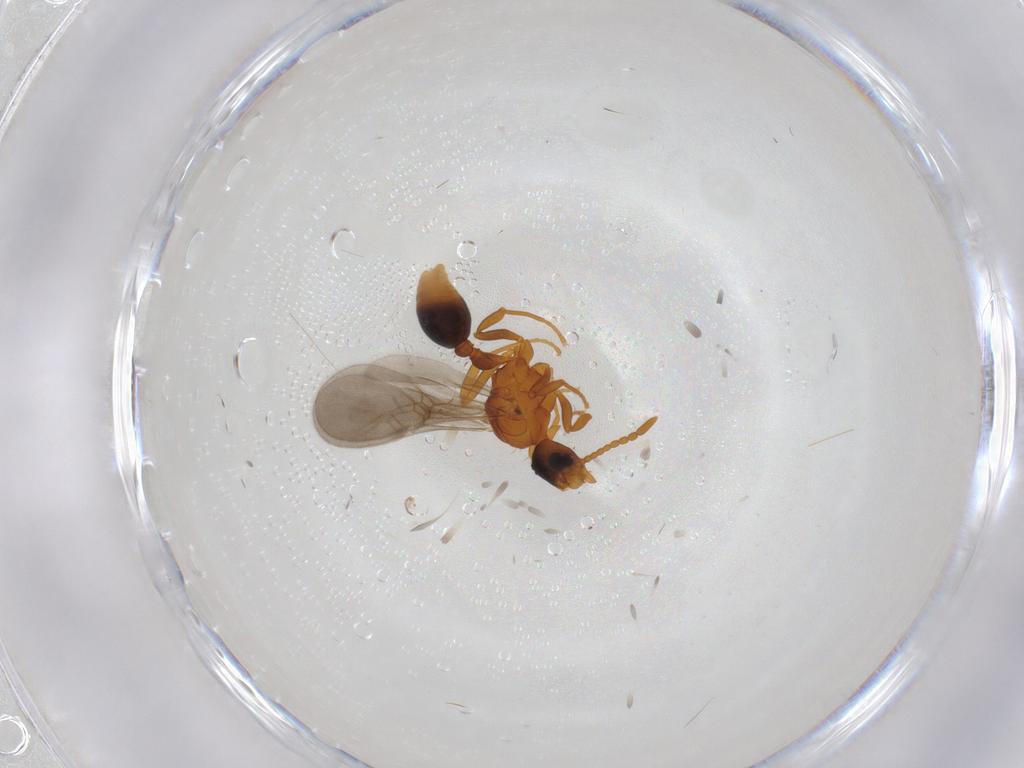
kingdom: Animalia
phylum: Arthropoda
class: Insecta
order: Hymenoptera
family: Formicidae
